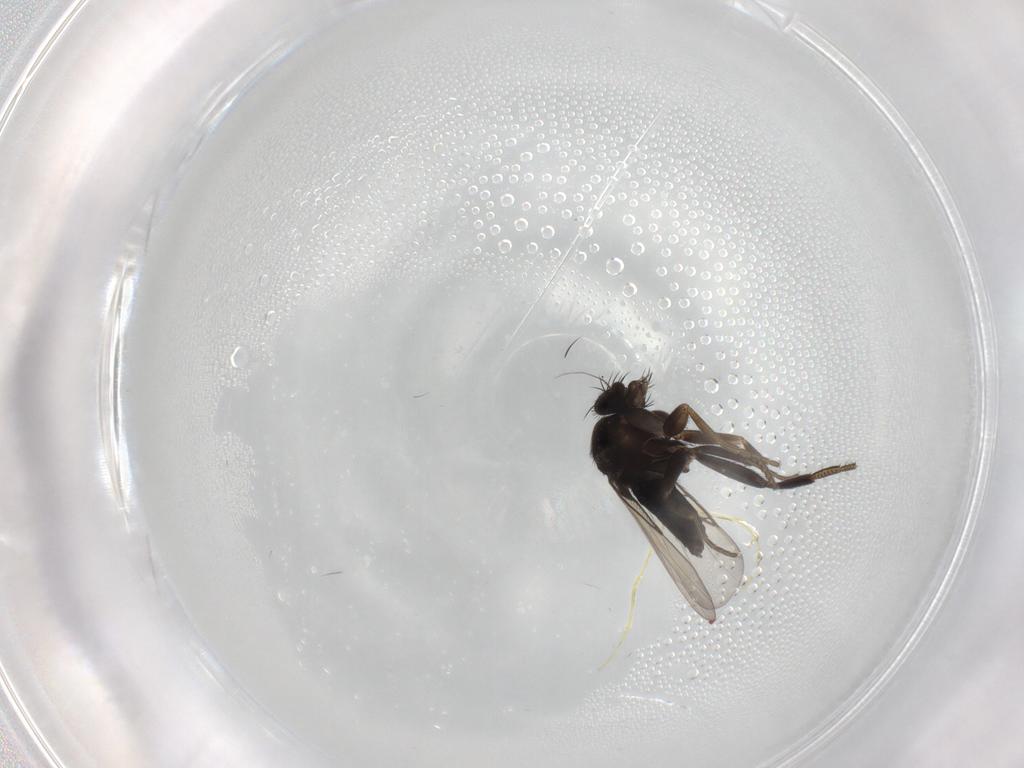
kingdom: Animalia
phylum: Arthropoda
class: Insecta
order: Diptera
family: Phoridae
